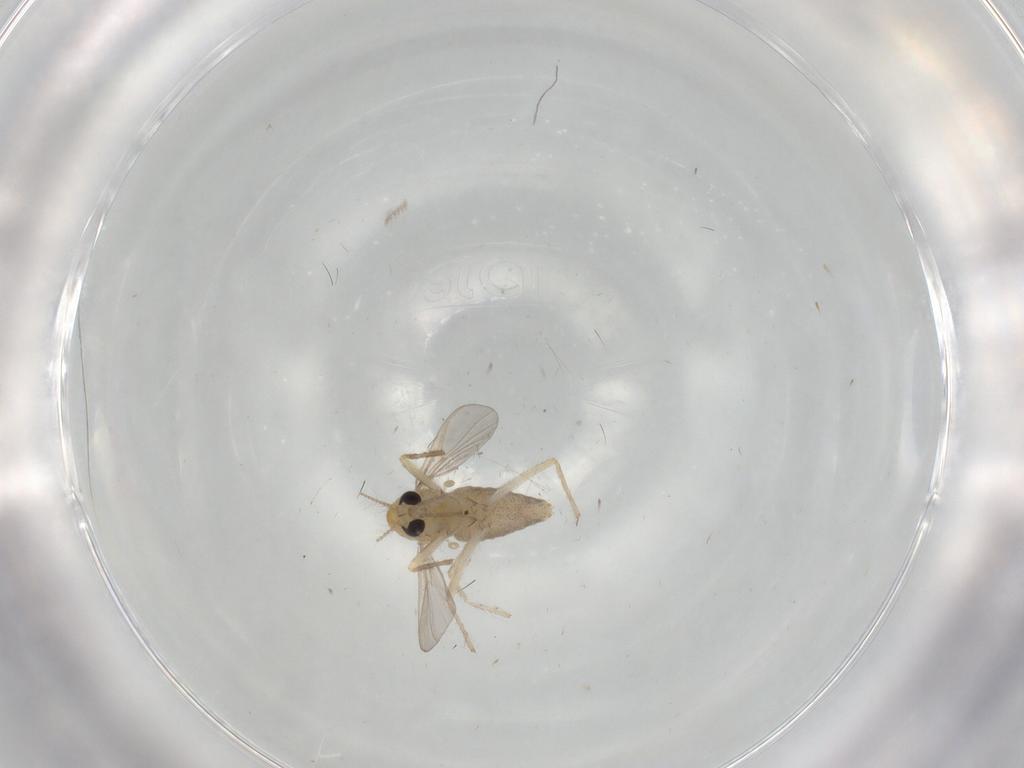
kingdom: Animalia
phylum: Arthropoda
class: Insecta
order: Diptera
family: Chironomidae
